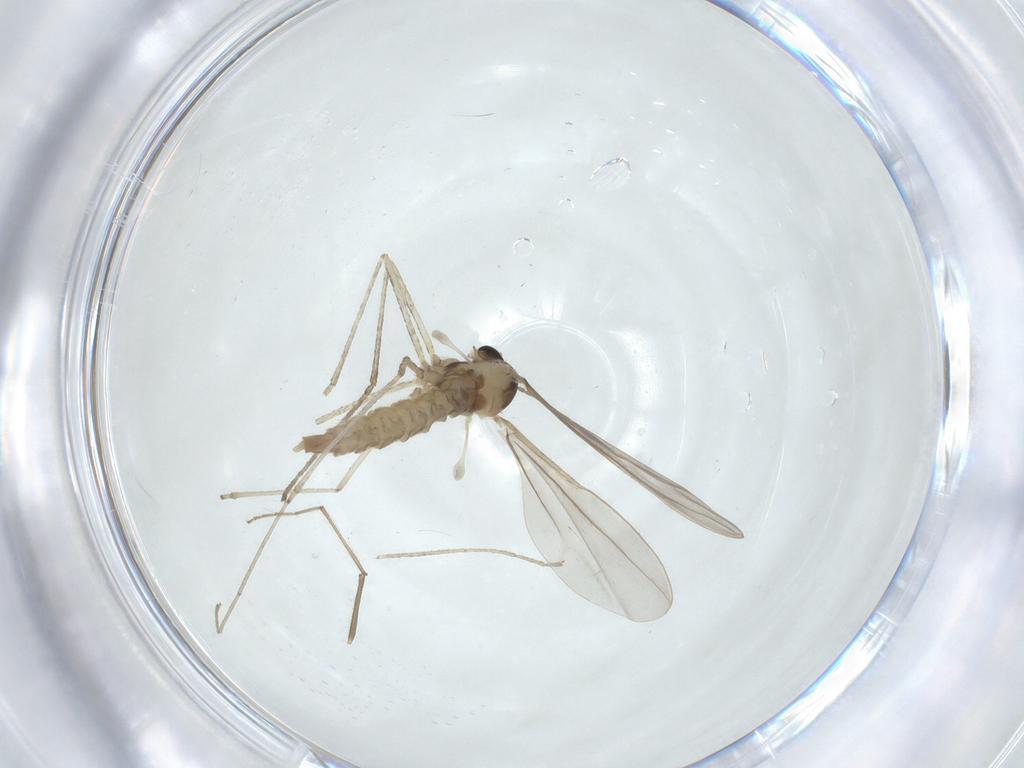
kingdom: Animalia
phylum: Arthropoda
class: Insecta
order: Diptera
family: Cecidomyiidae
